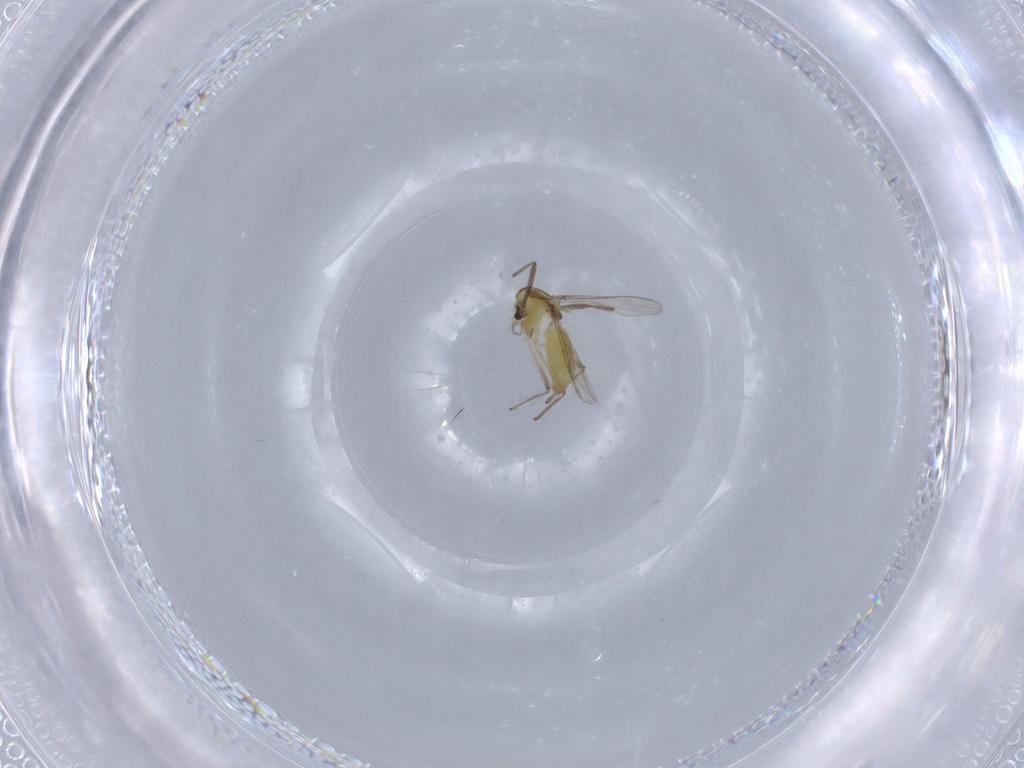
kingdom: Animalia
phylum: Arthropoda
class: Insecta
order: Diptera
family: Chironomidae
